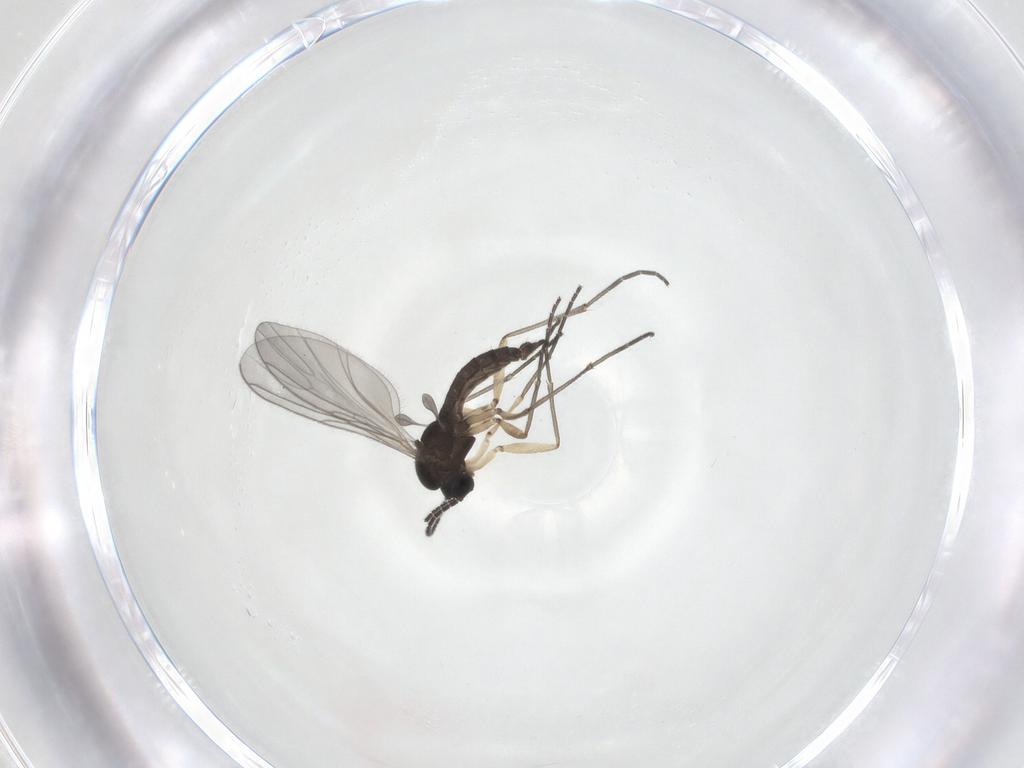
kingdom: Animalia
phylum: Arthropoda
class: Insecta
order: Diptera
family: Sciaridae
